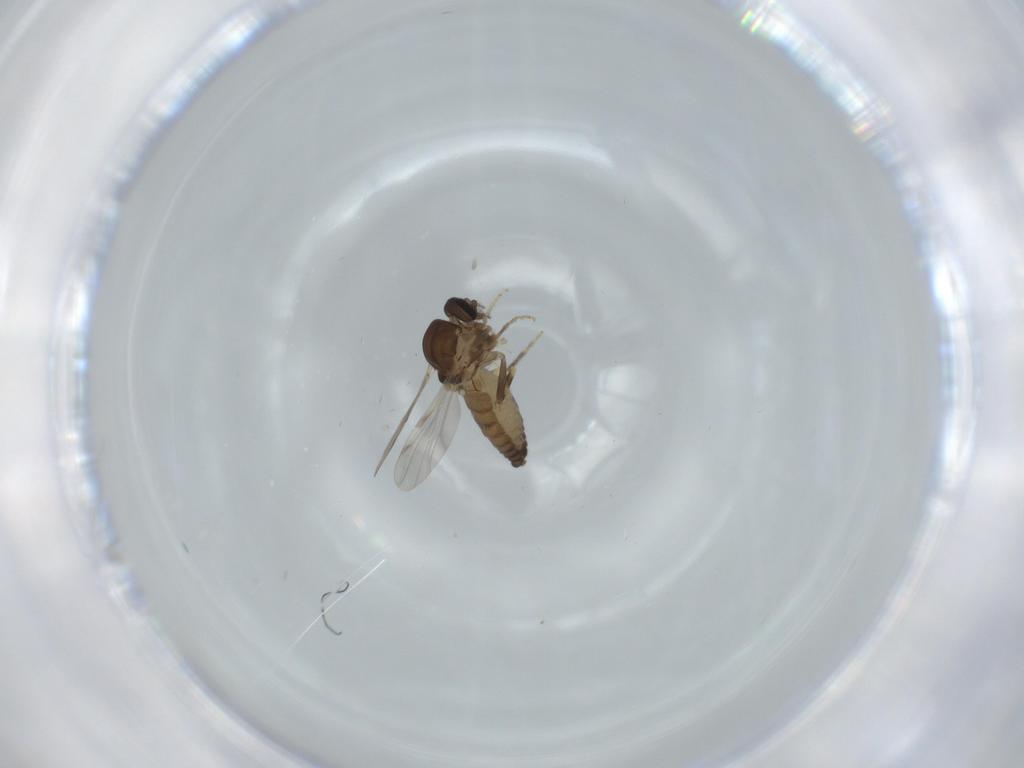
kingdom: Animalia
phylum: Arthropoda
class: Insecta
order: Diptera
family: Ceratopogonidae
